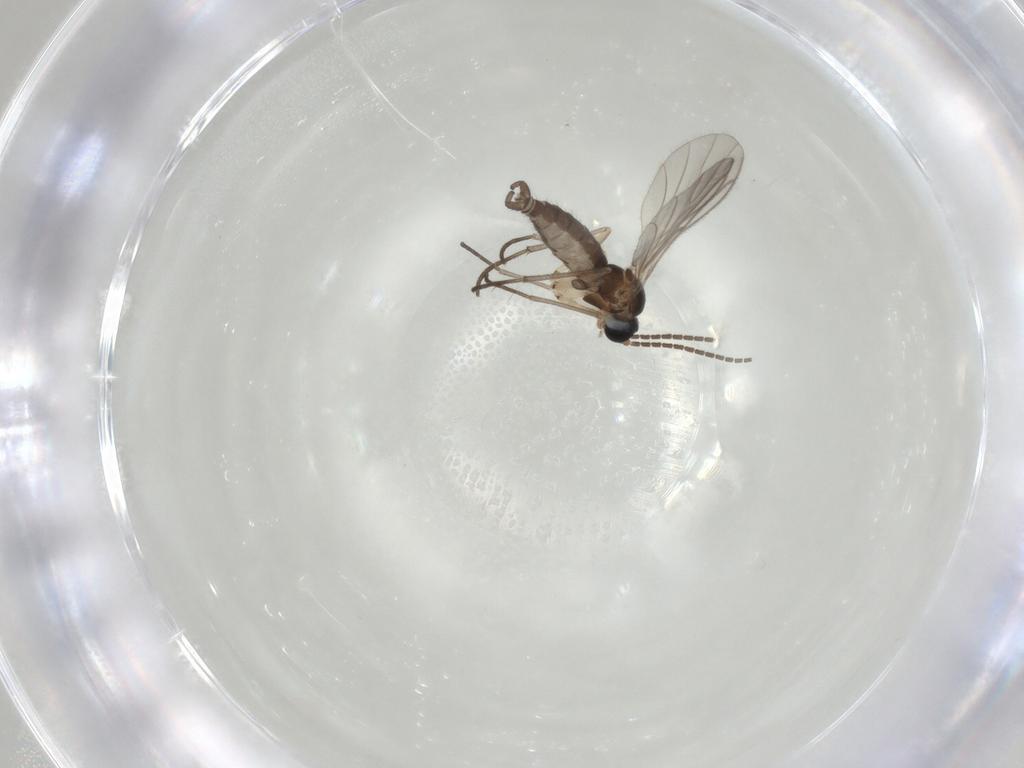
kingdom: Animalia
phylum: Arthropoda
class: Insecta
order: Diptera
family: Sciaridae
